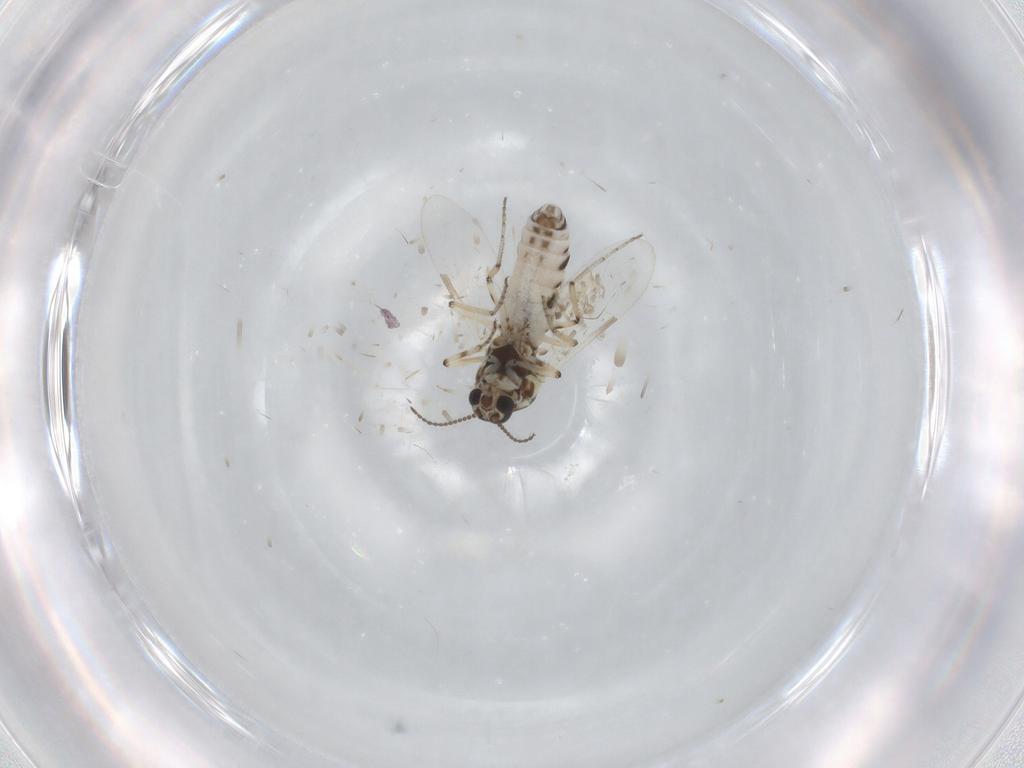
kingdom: Animalia
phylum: Arthropoda
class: Insecta
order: Diptera
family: Ceratopogonidae
